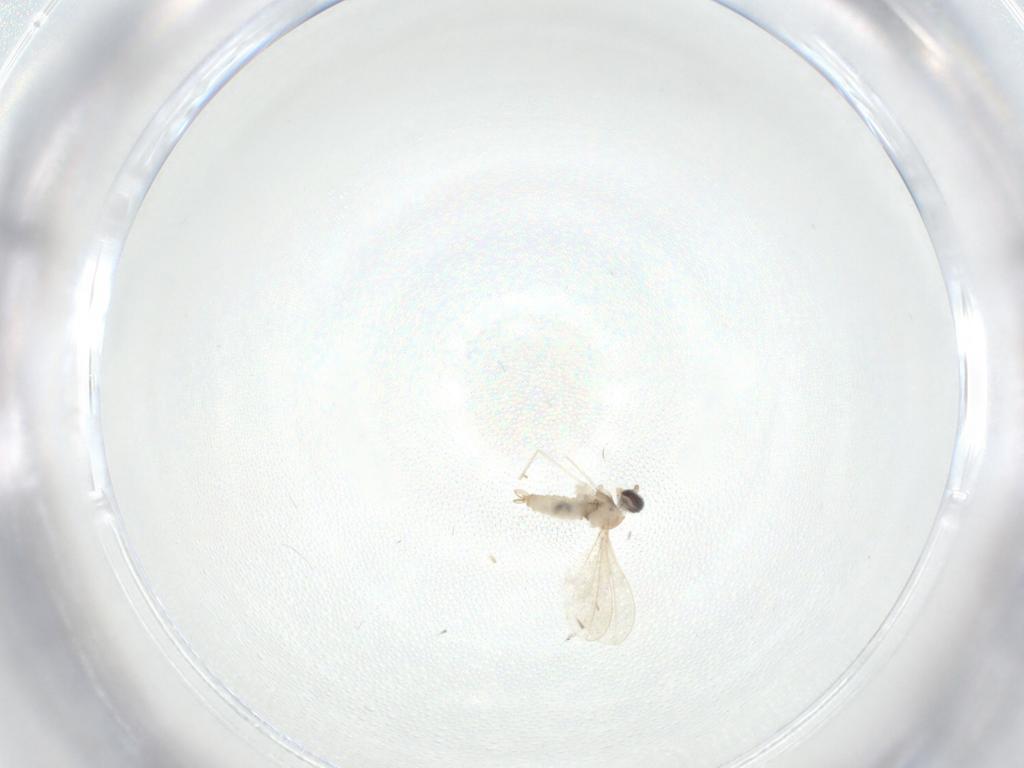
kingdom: Animalia
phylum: Arthropoda
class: Insecta
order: Diptera
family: Cecidomyiidae
